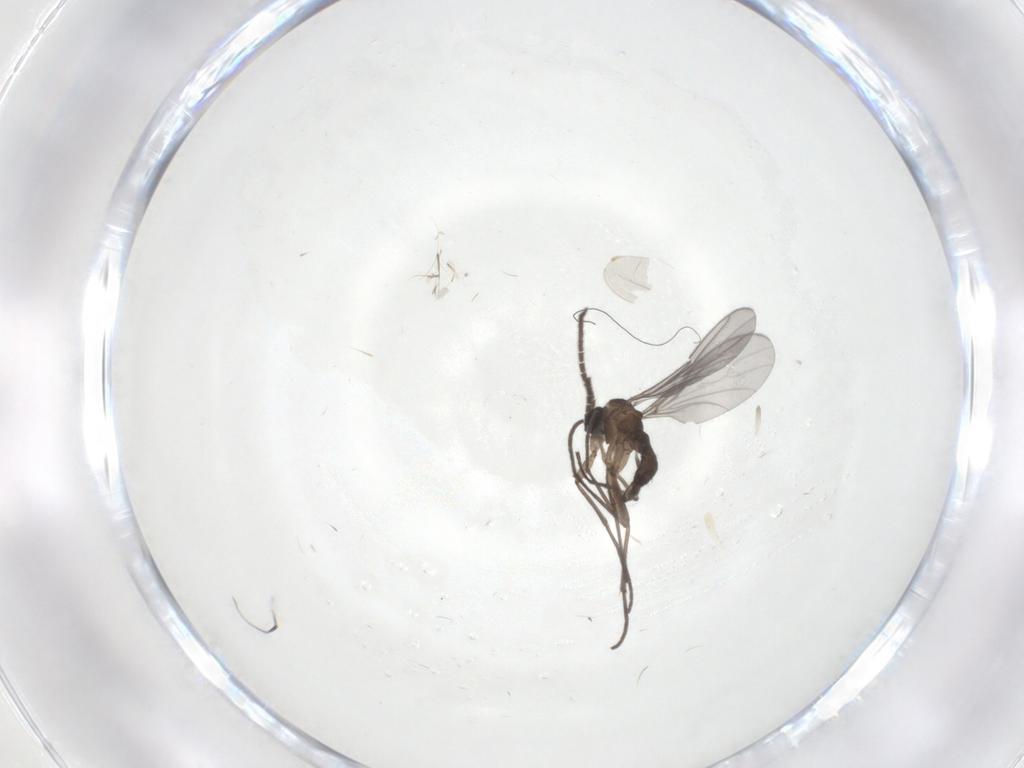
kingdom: Animalia
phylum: Arthropoda
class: Insecta
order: Diptera
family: Sciaridae
